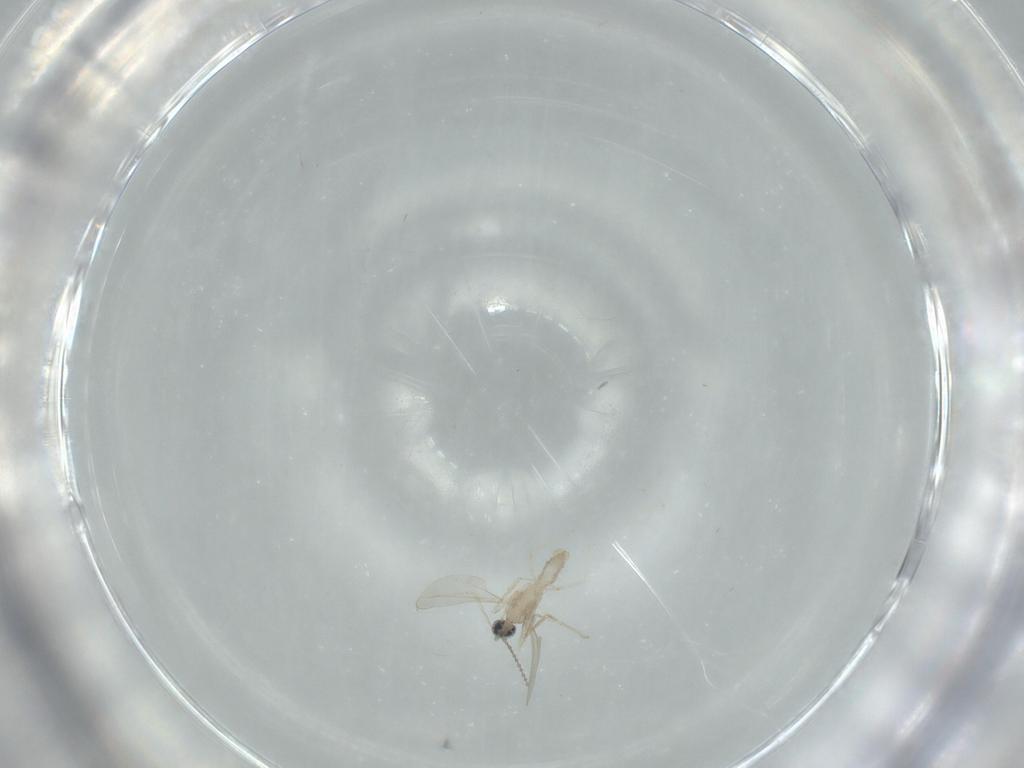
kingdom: Animalia
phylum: Arthropoda
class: Insecta
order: Diptera
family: Cecidomyiidae
